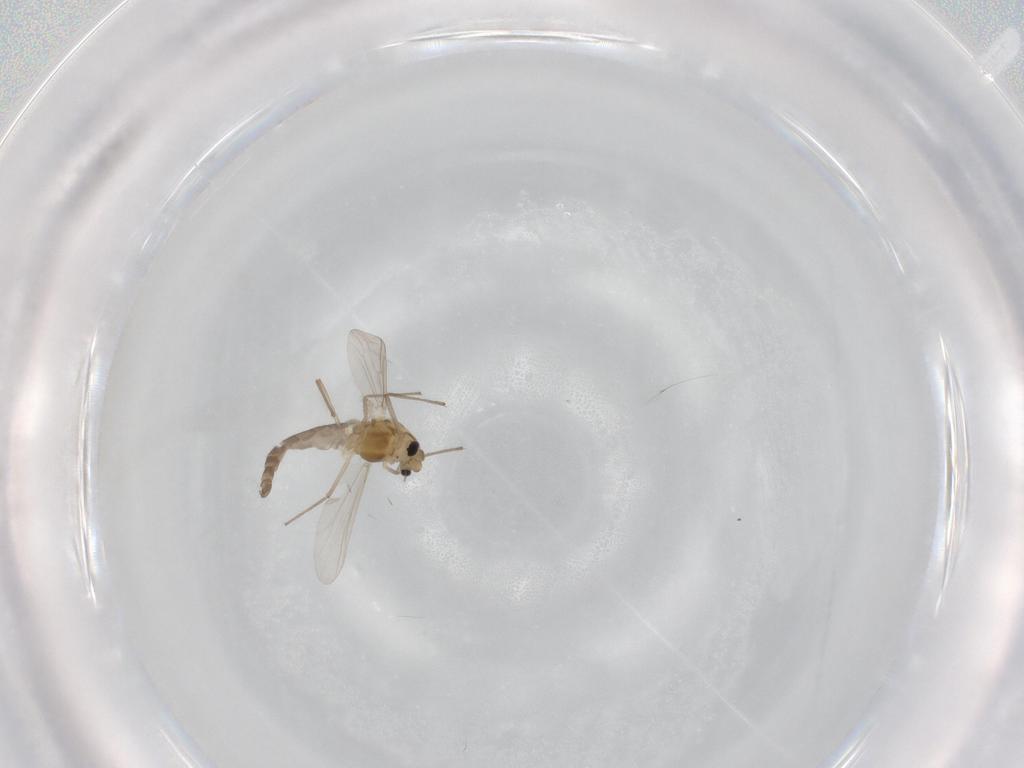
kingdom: Animalia
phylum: Arthropoda
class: Insecta
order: Diptera
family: Chironomidae
